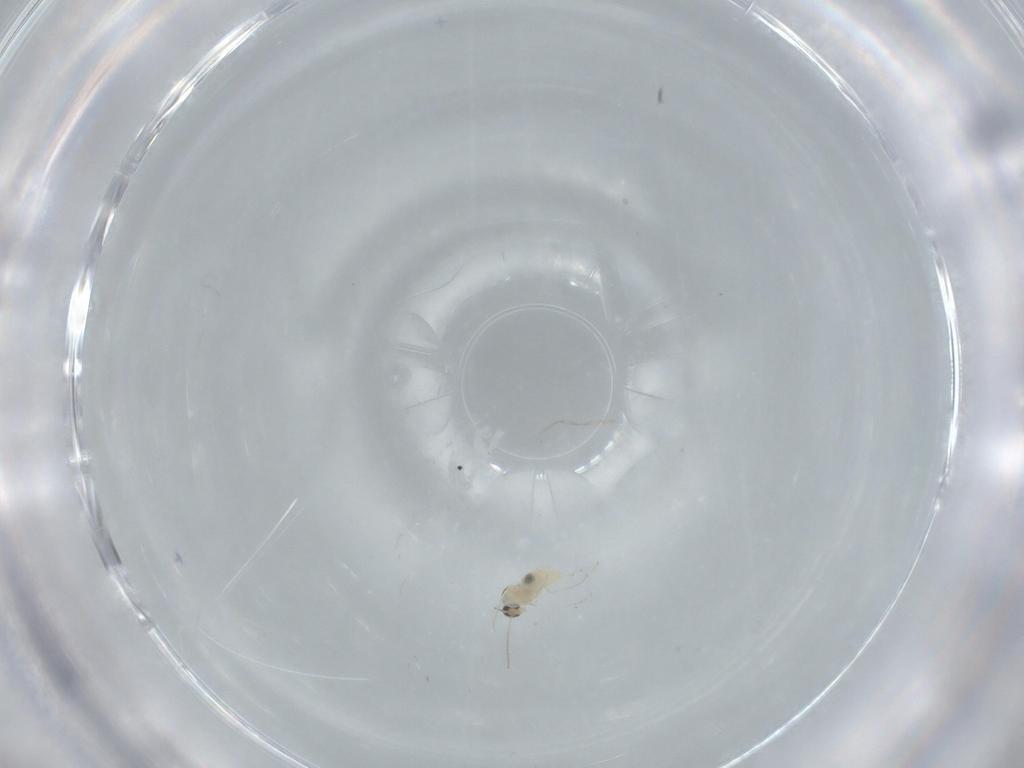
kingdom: Animalia
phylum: Arthropoda
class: Insecta
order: Diptera
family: Cecidomyiidae
